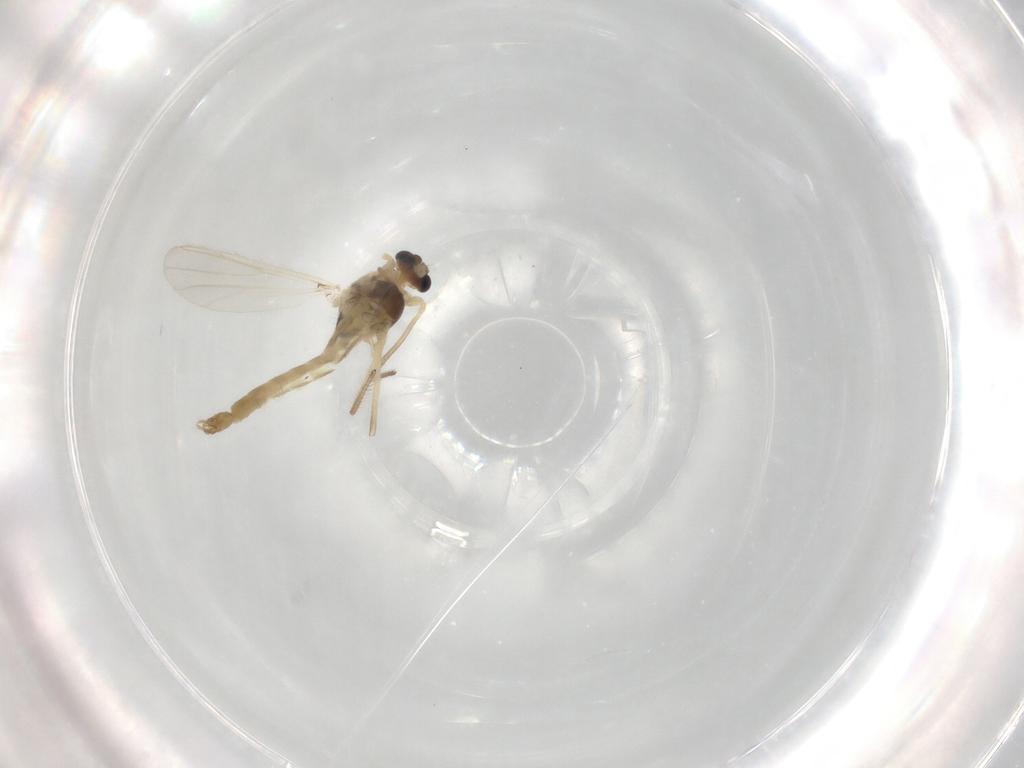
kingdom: Animalia
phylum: Arthropoda
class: Insecta
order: Diptera
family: Chironomidae
